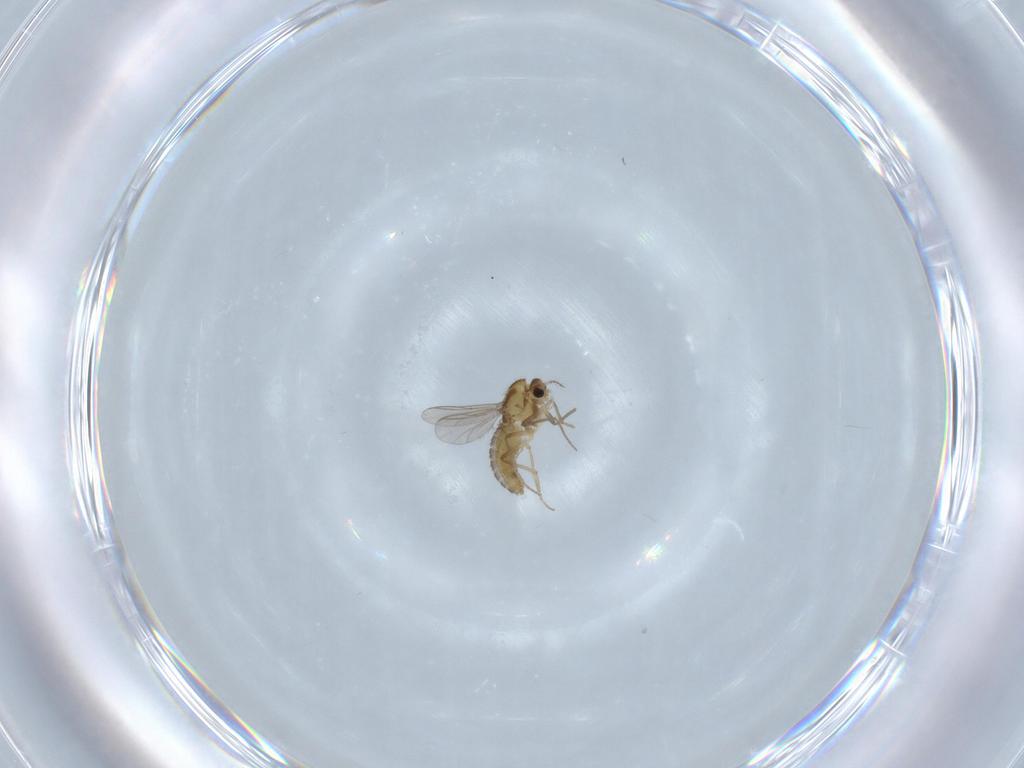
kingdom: Animalia
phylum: Arthropoda
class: Insecta
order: Diptera
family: Chironomidae
